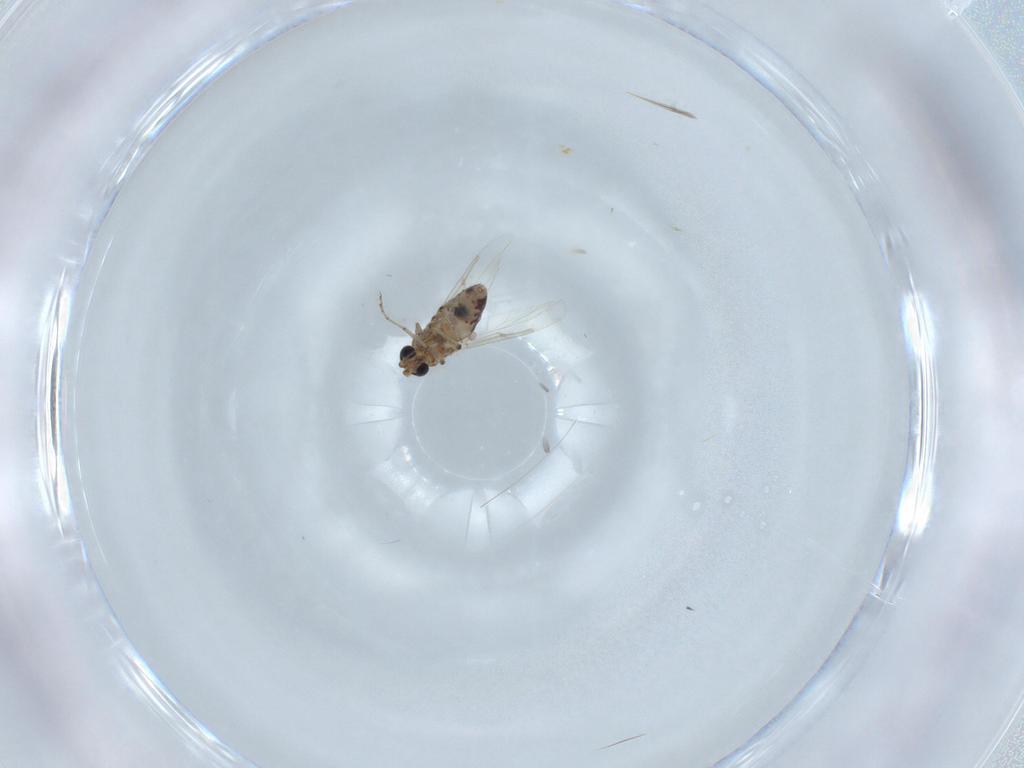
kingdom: Animalia
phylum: Arthropoda
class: Insecta
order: Diptera
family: Ceratopogonidae
